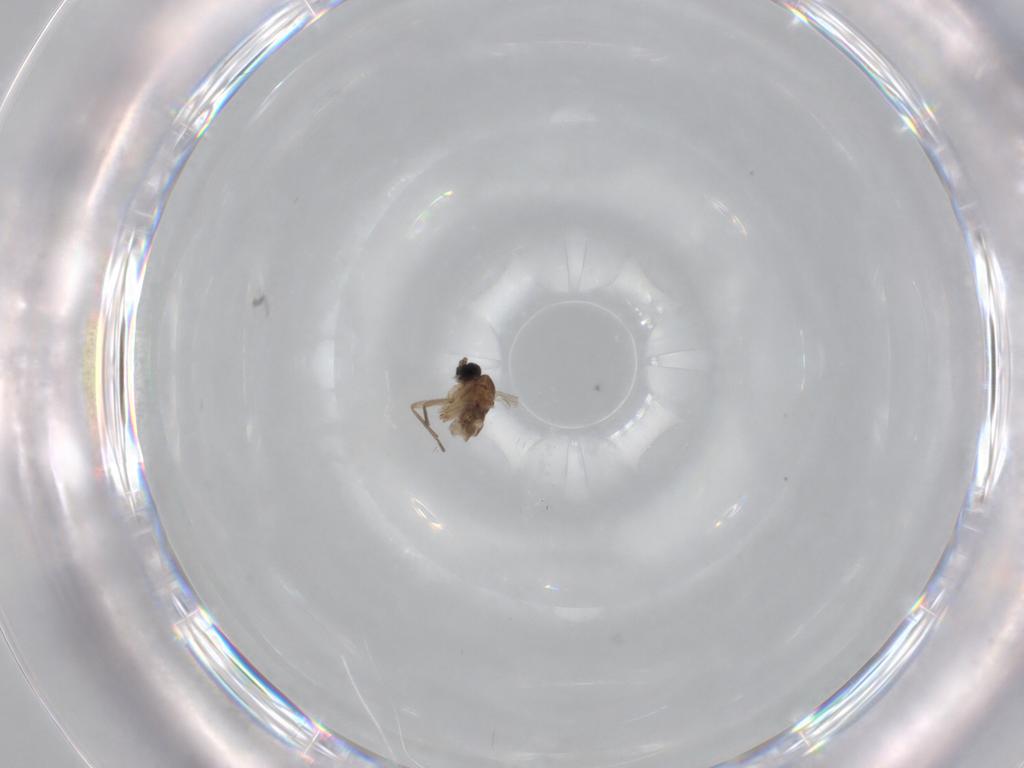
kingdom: Animalia
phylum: Arthropoda
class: Insecta
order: Diptera
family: Sciaridae
